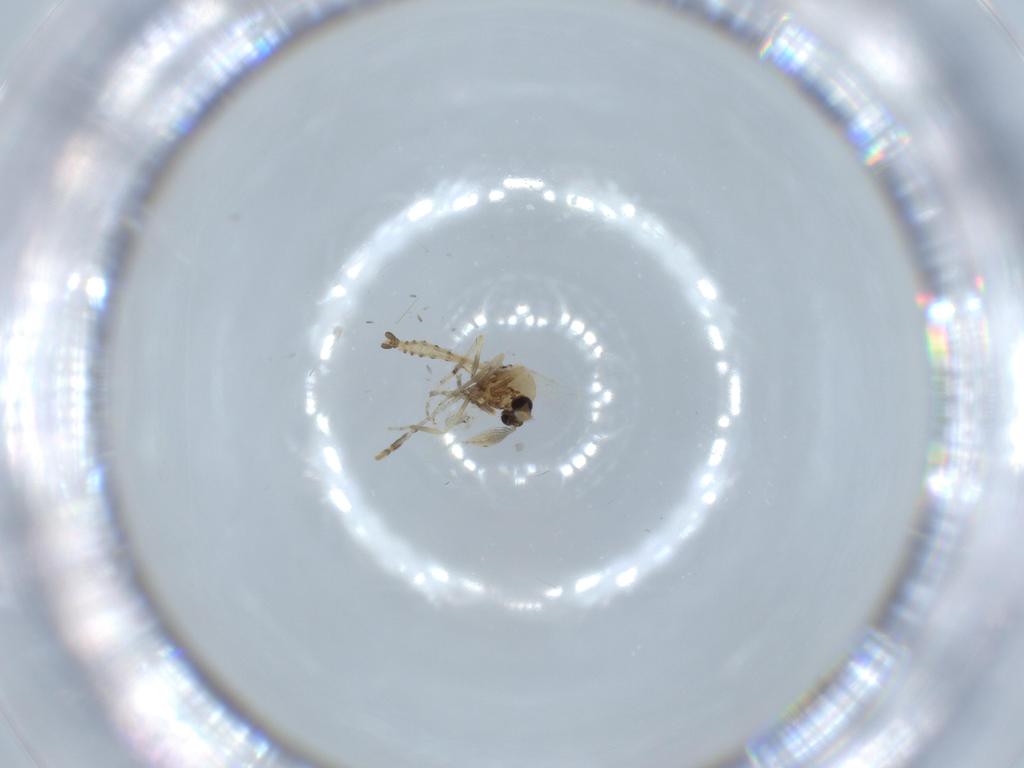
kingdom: Animalia
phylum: Arthropoda
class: Insecta
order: Diptera
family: Psychodidae
